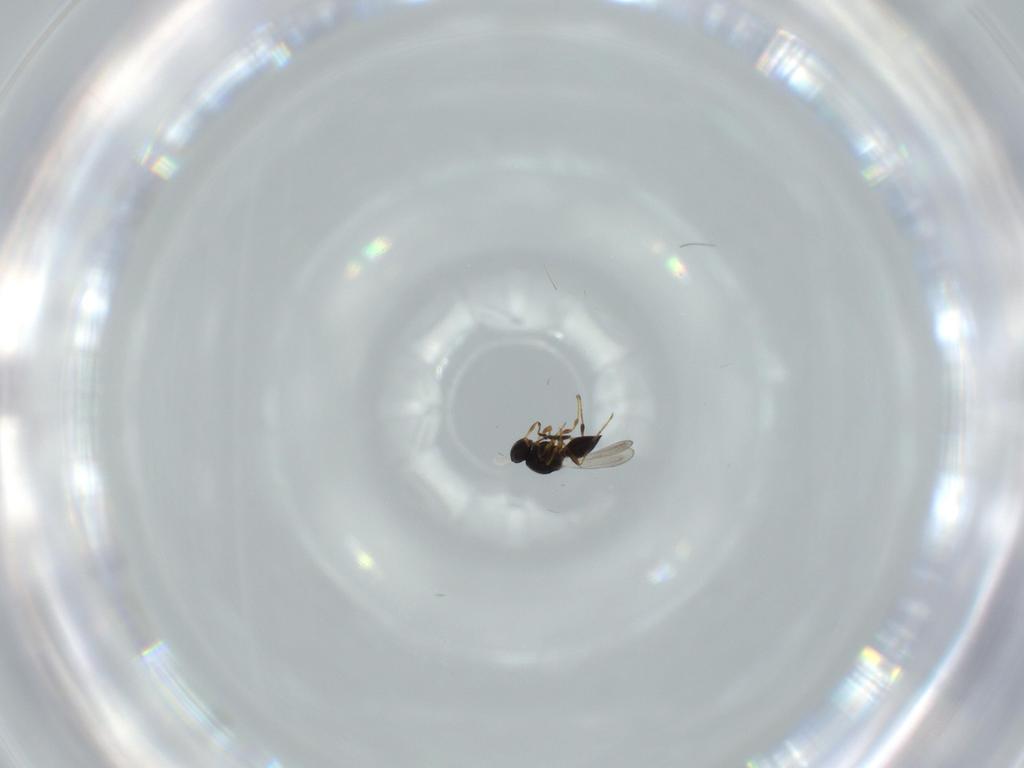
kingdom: Animalia
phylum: Arthropoda
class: Insecta
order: Hymenoptera
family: Platygastridae
